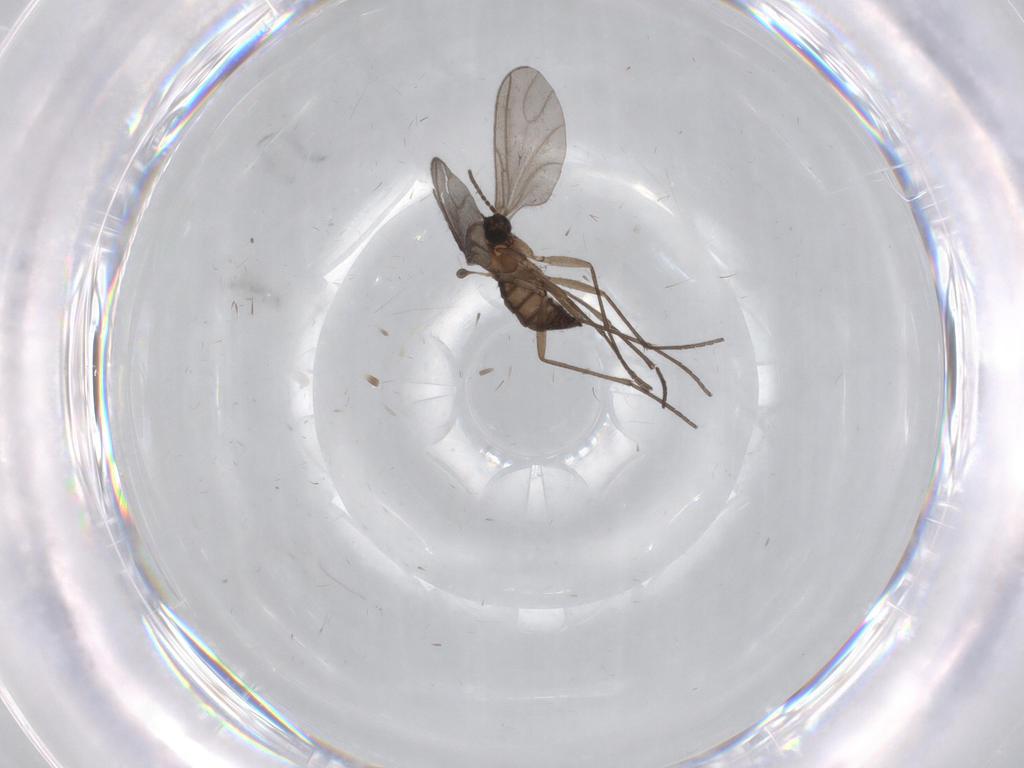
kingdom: Animalia
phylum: Arthropoda
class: Insecta
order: Diptera
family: Sciaridae
